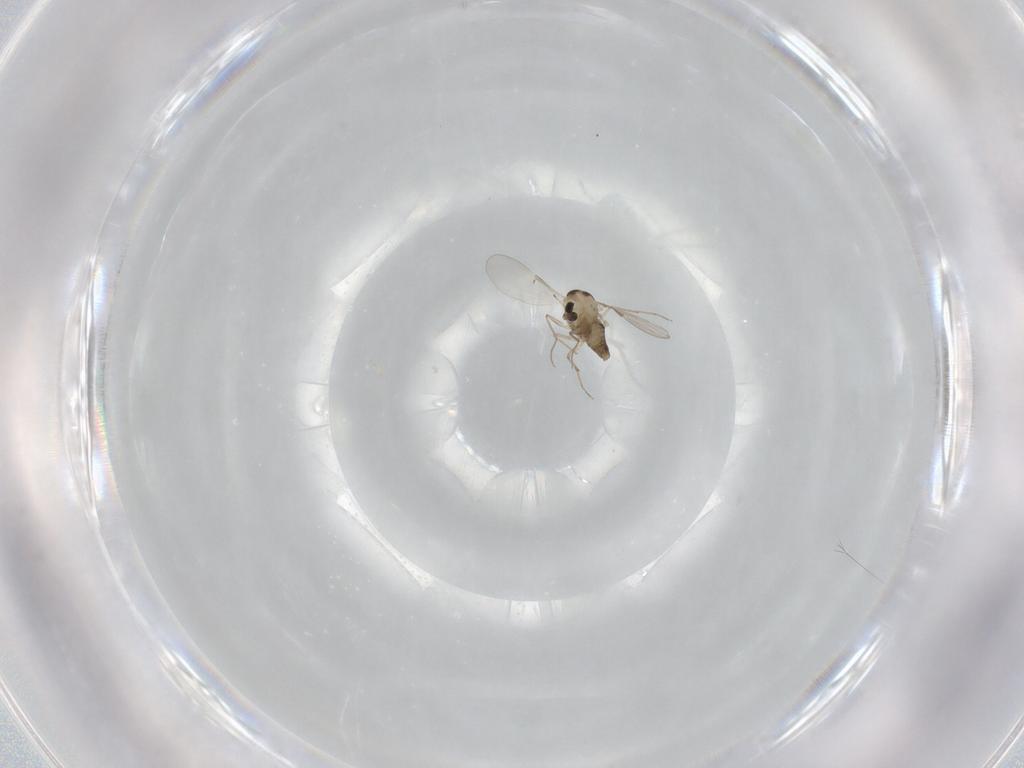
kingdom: Animalia
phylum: Arthropoda
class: Insecta
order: Diptera
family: Chironomidae
